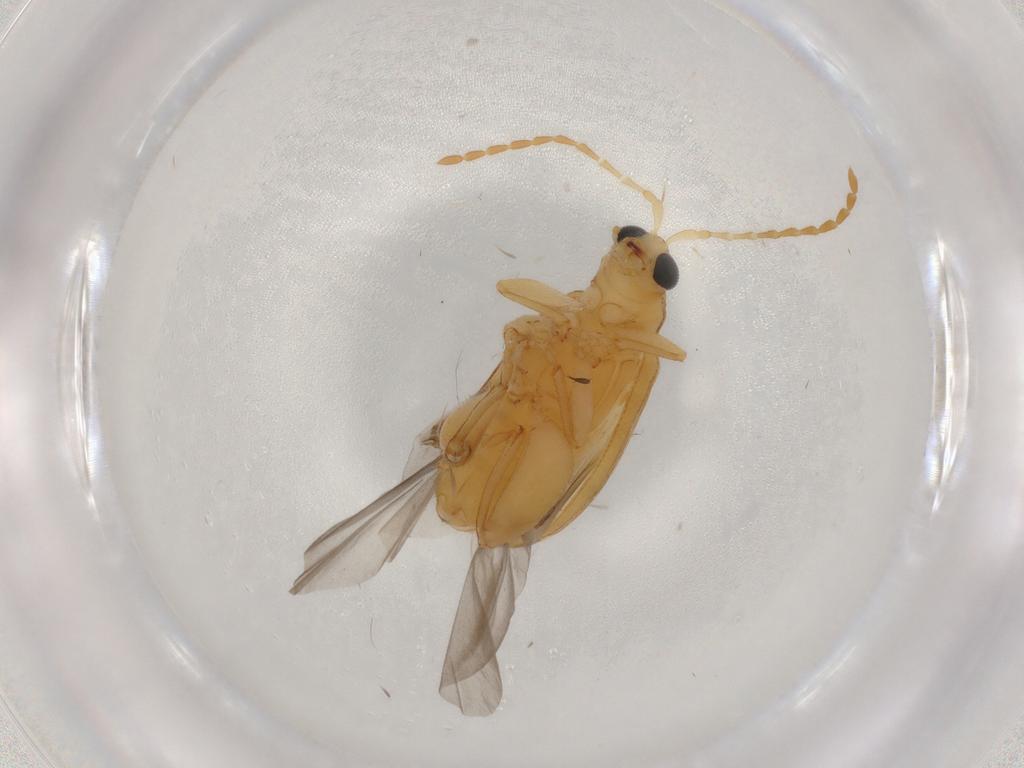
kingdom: Animalia
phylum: Arthropoda
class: Insecta
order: Coleoptera
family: Chrysomelidae
